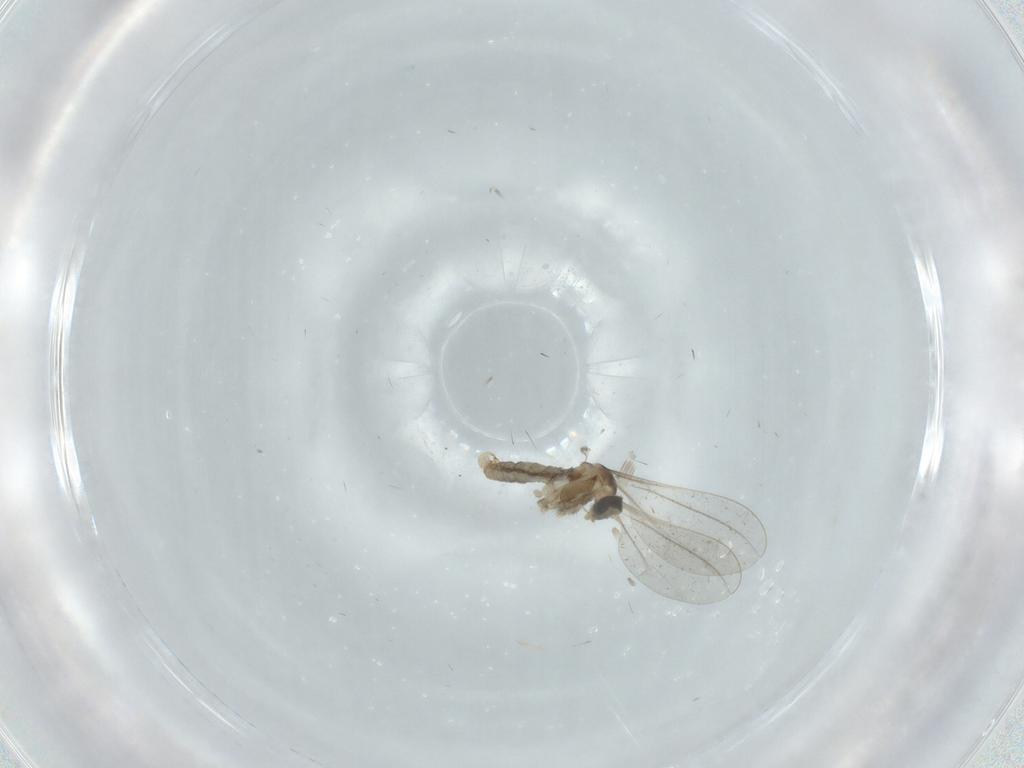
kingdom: Animalia
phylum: Arthropoda
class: Insecta
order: Diptera
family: Cecidomyiidae
